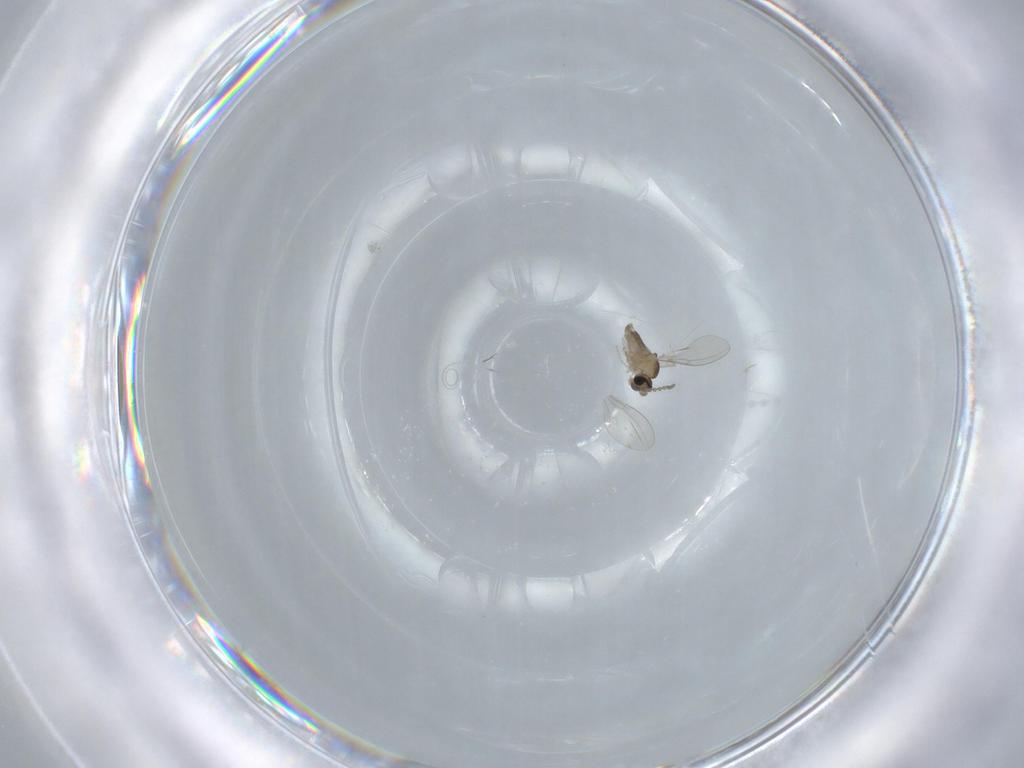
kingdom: Animalia
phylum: Arthropoda
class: Insecta
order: Diptera
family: Cecidomyiidae
